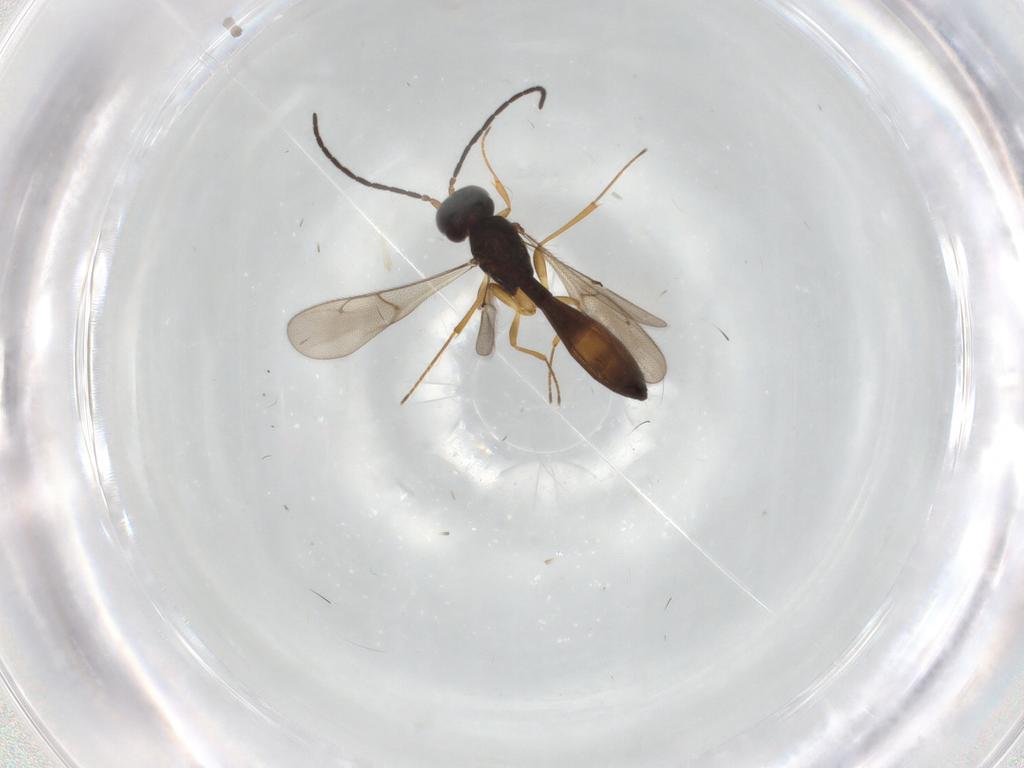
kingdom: Animalia
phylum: Arthropoda
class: Insecta
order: Hymenoptera
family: Scelionidae
